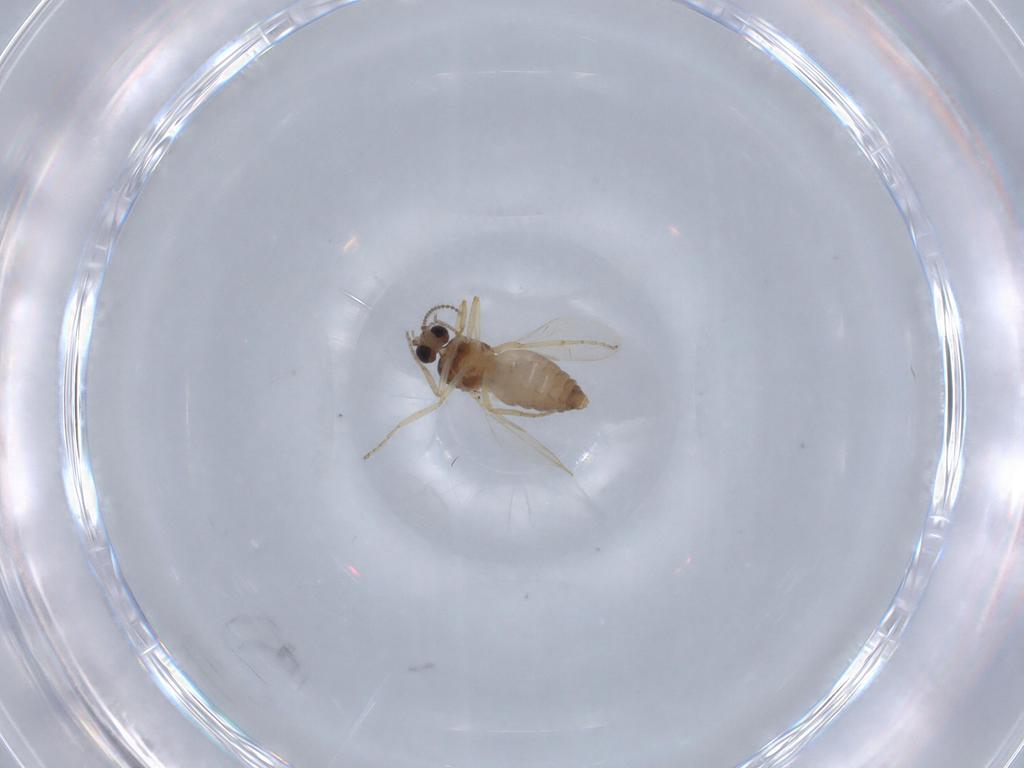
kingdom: Animalia
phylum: Arthropoda
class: Insecta
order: Diptera
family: Ceratopogonidae
